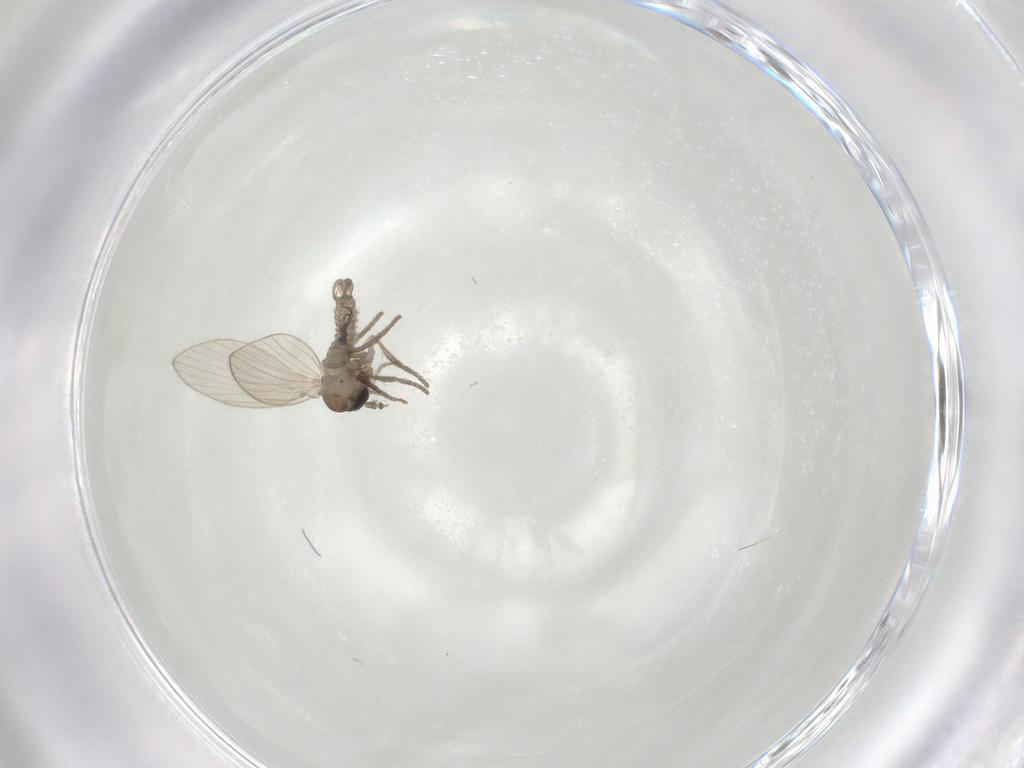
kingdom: Animalia
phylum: Arthropoda
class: Insecta
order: Diptera
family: Psychodidae
